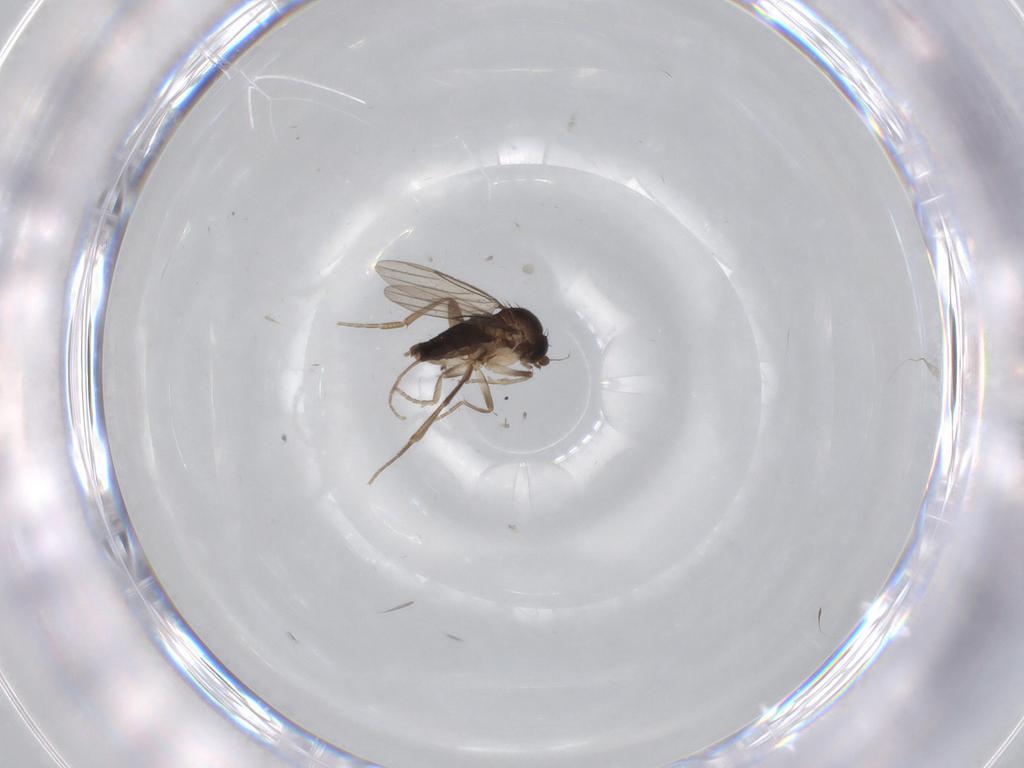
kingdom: Animalia
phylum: Arthropoda
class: Insecta
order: Diptera
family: Phoridae
